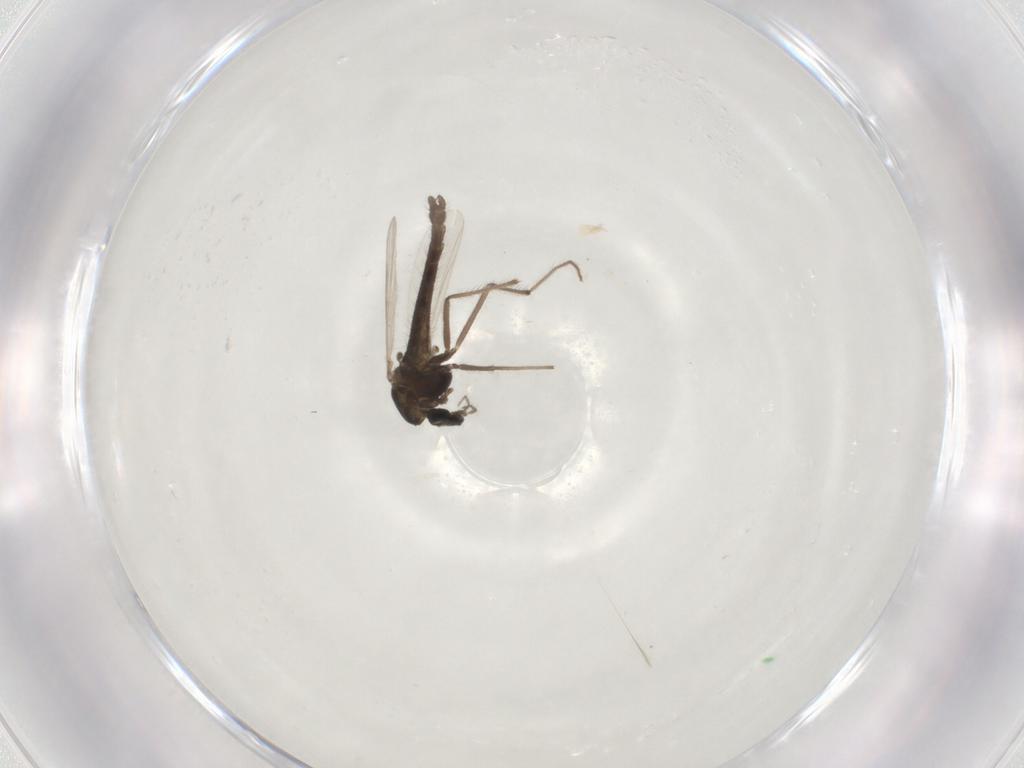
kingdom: Animalia
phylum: Arthropoda
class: Insecta
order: Diptera
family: Chironomidae
